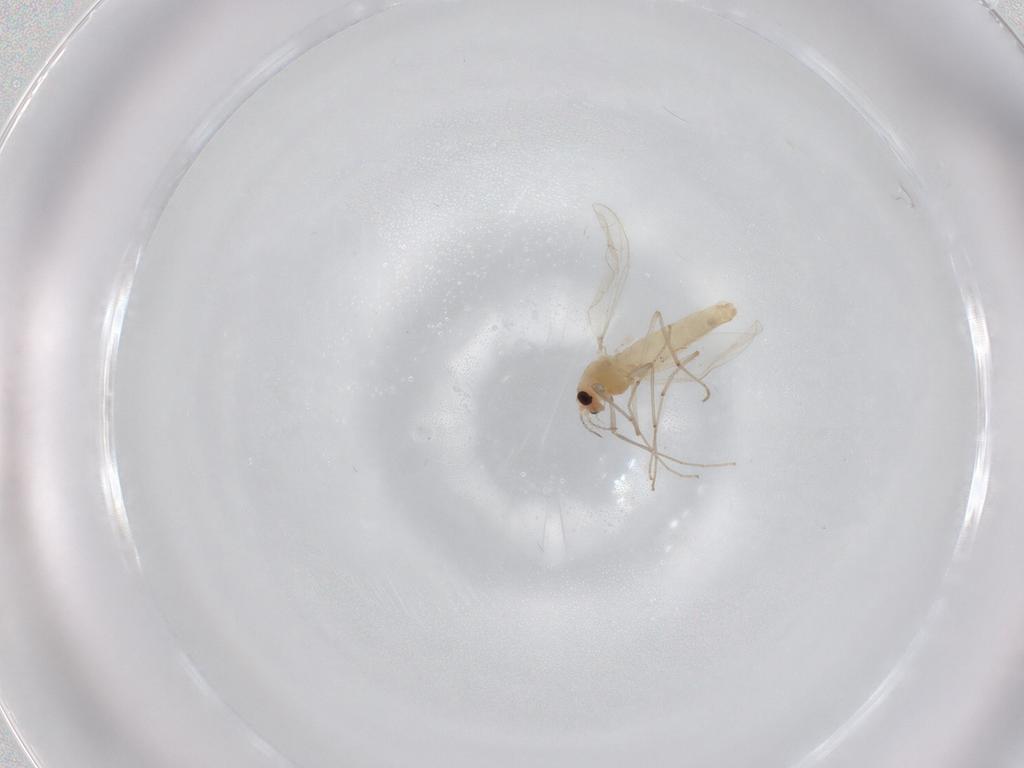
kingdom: Animalia
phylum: Arthropoda
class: Insecta
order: Diptera
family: Chironomidae
